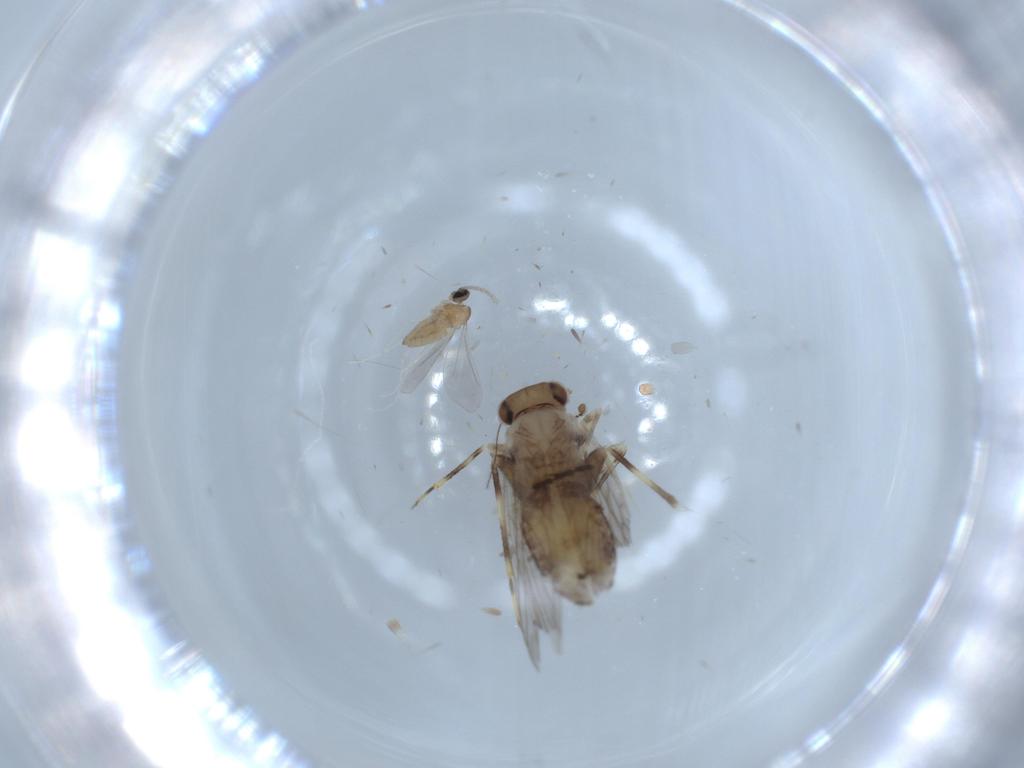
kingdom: Animalia
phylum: Arthropoda
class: Insecta
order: Psocodea
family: Lepidopsocidae
